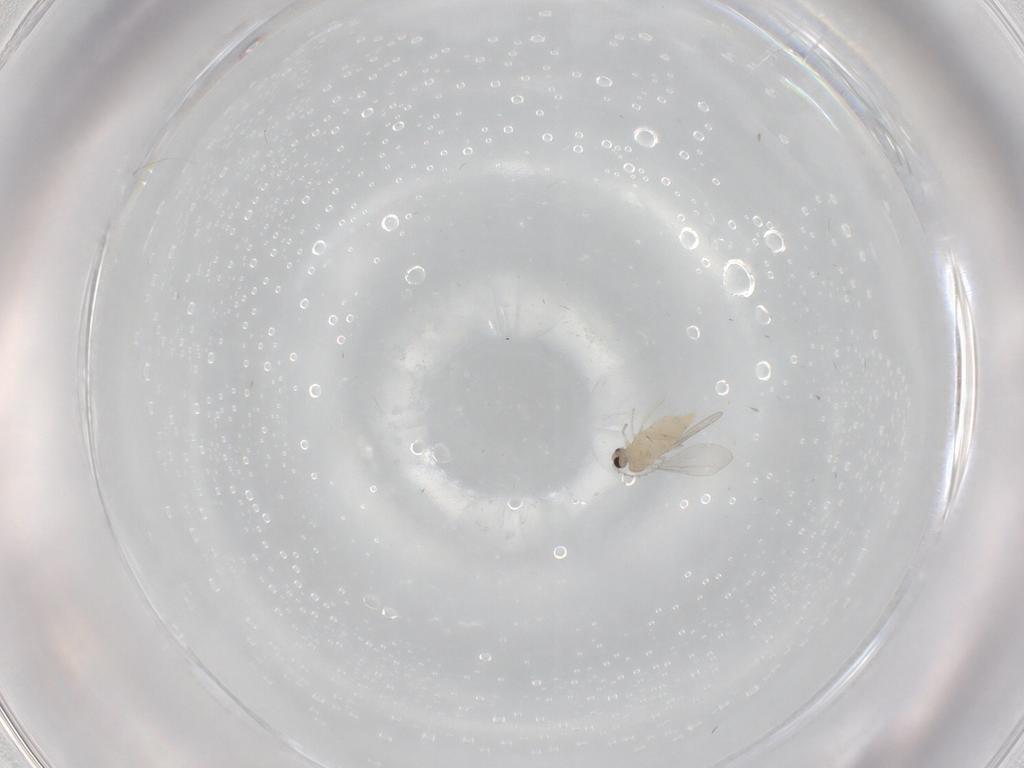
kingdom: Animalia
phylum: Arthropoda
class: Insecta
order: Diptera
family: Cecidomyiidae
